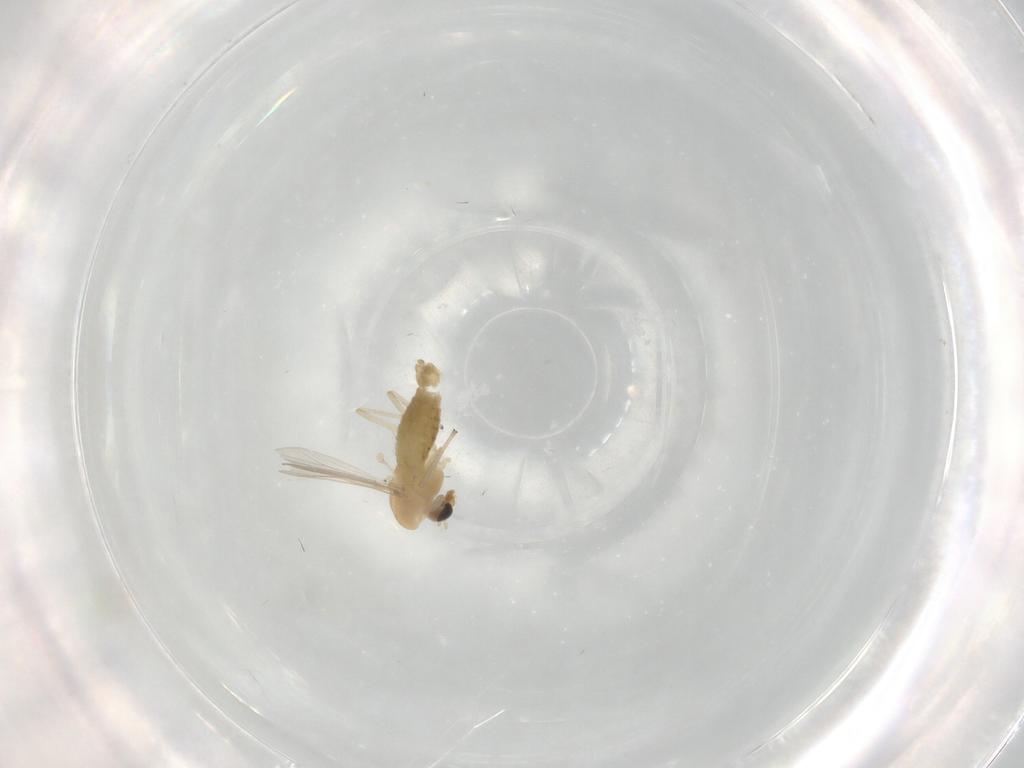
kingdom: Animalia
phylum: Arthropoda
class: Insecta
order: Diptera
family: Chironomidae
